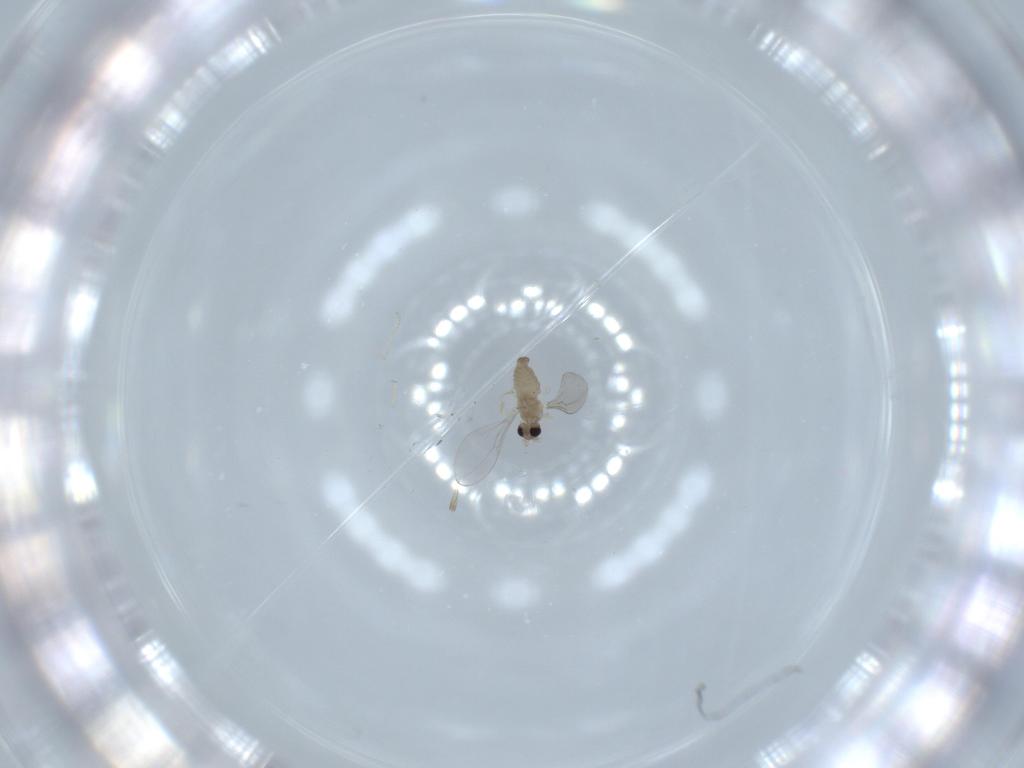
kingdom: Animalia
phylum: Arthropoda
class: Insecta
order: Diptera
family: Cecidomyiidae
